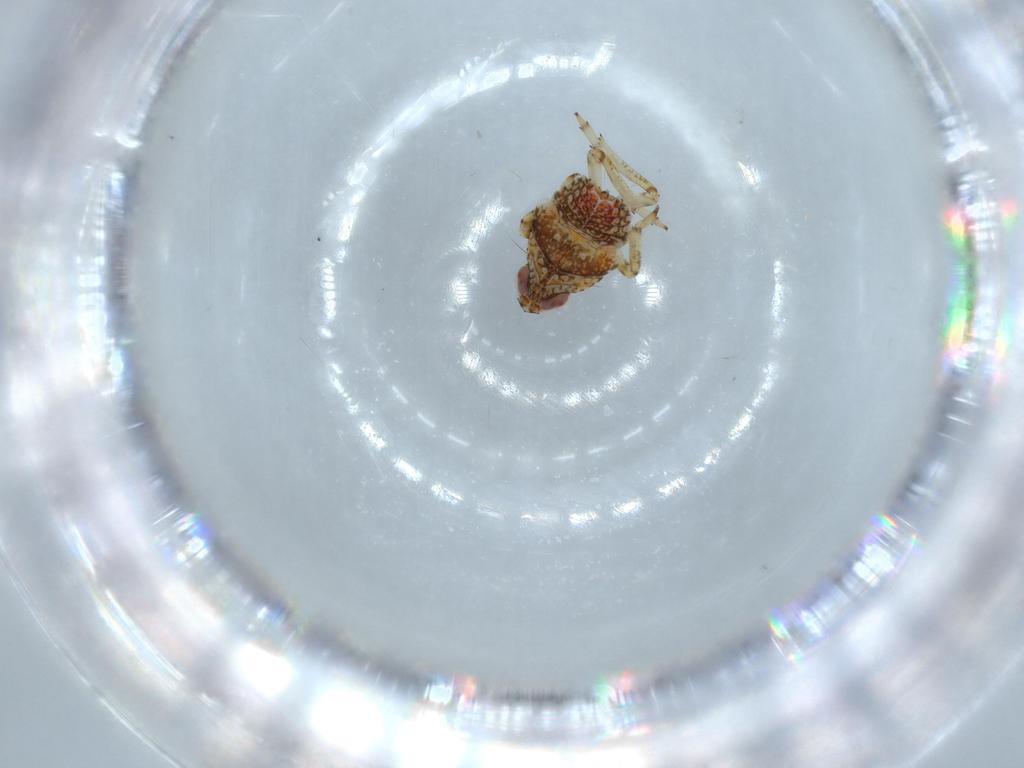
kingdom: Animalia
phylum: Arthropoda
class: Insecta
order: Hemiptera
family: Issidae
